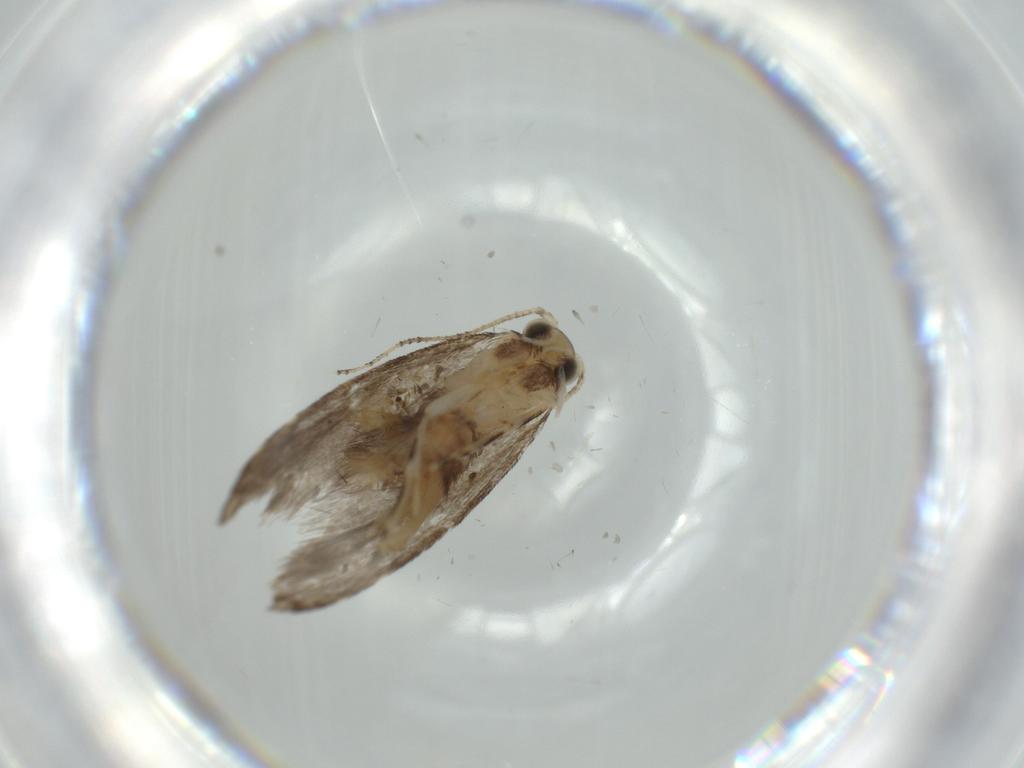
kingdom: Animalia
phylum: Arthropoda
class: Insecta
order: Lepidoptera
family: Tineidae
